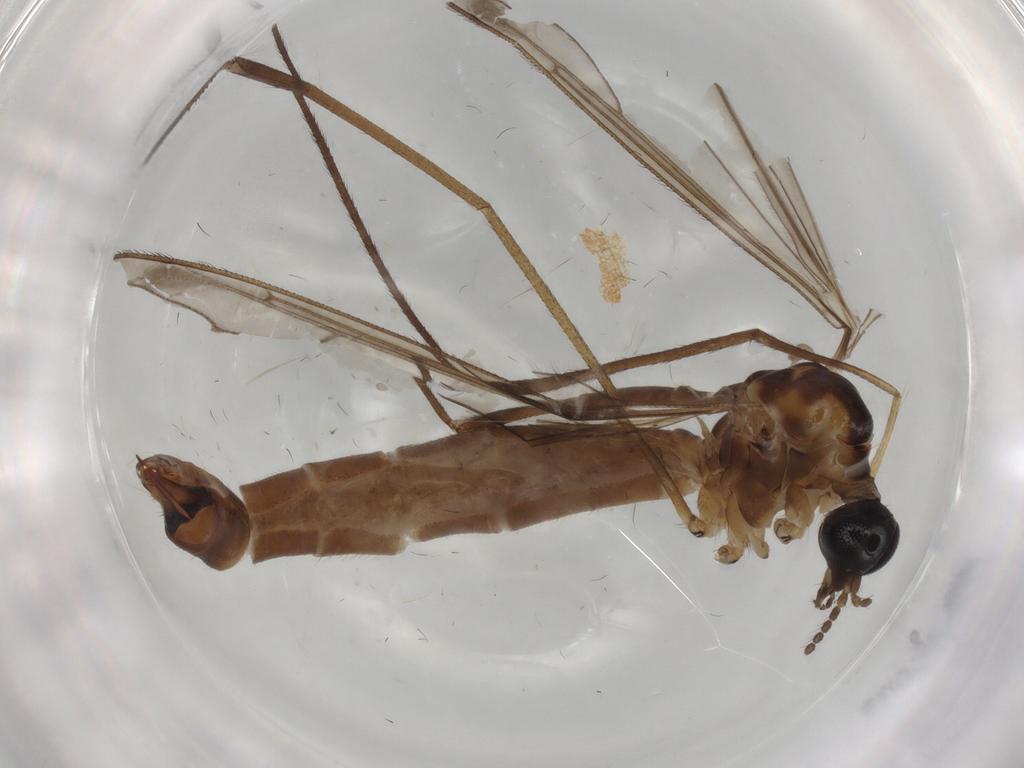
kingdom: Animalia
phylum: Arthropoda
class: Insecta
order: Diptera
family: Limoniidae
